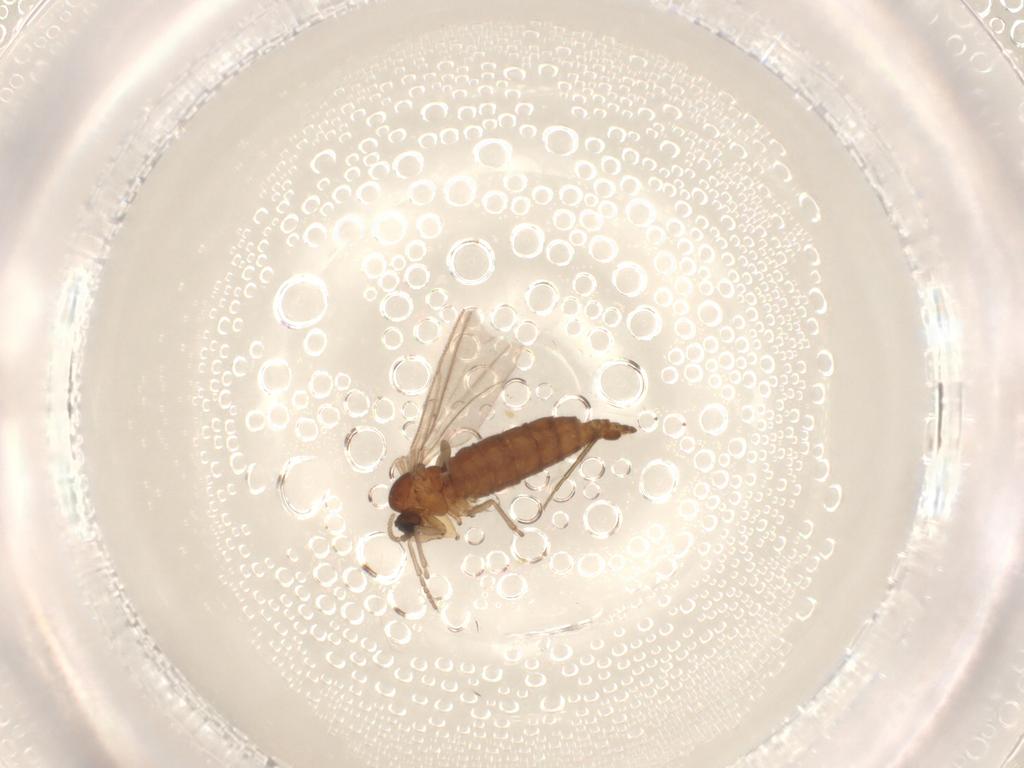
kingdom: Animalia
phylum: Arthropoda
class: Insecta
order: Diptera
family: Phoridae
